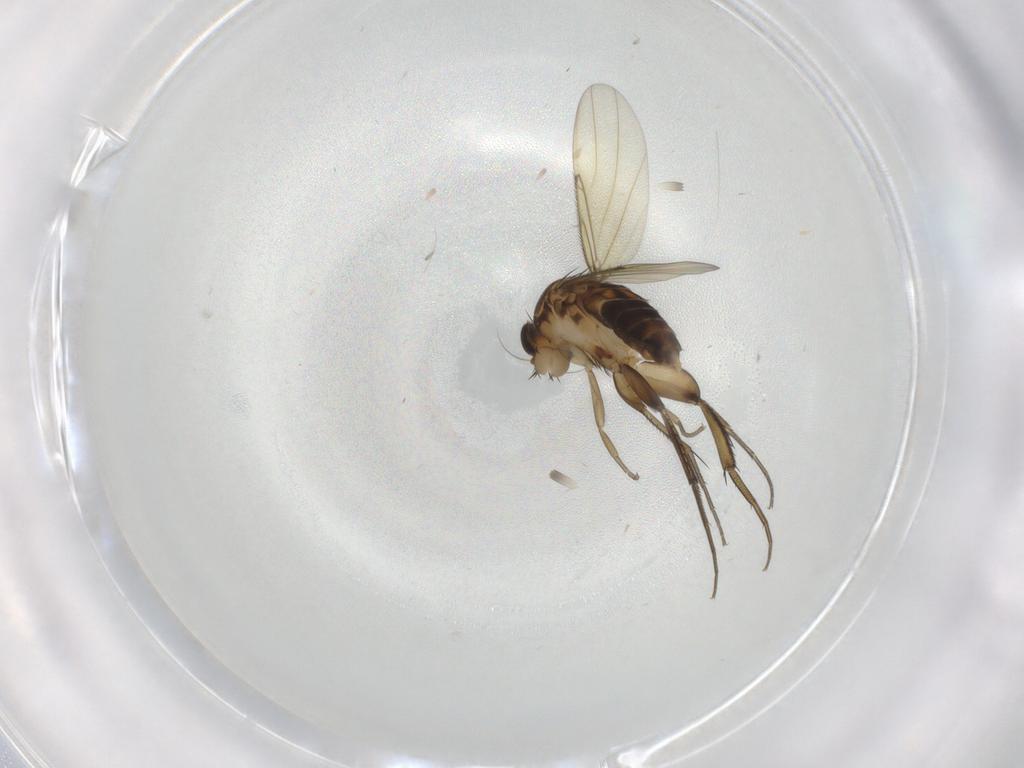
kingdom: Animalia
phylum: Arthropoda
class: Insecta
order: Diptera
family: Phoridae
